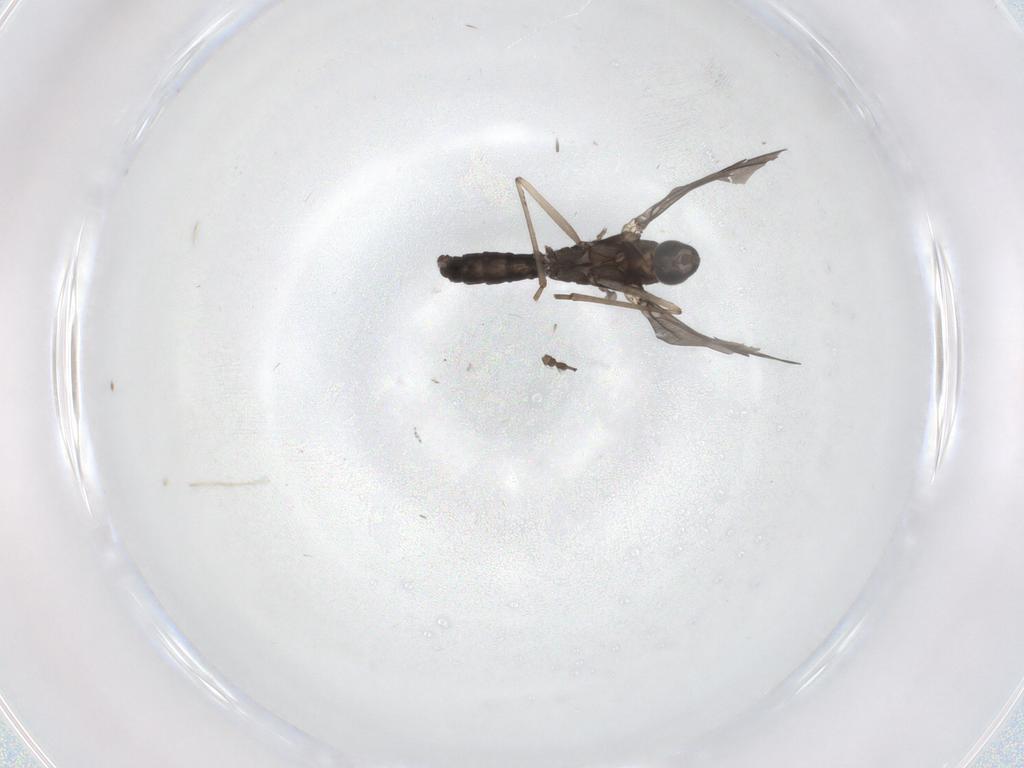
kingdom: Animalia
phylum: Arthropoda
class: Insecta
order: Diptera
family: Cecidomyiidae
